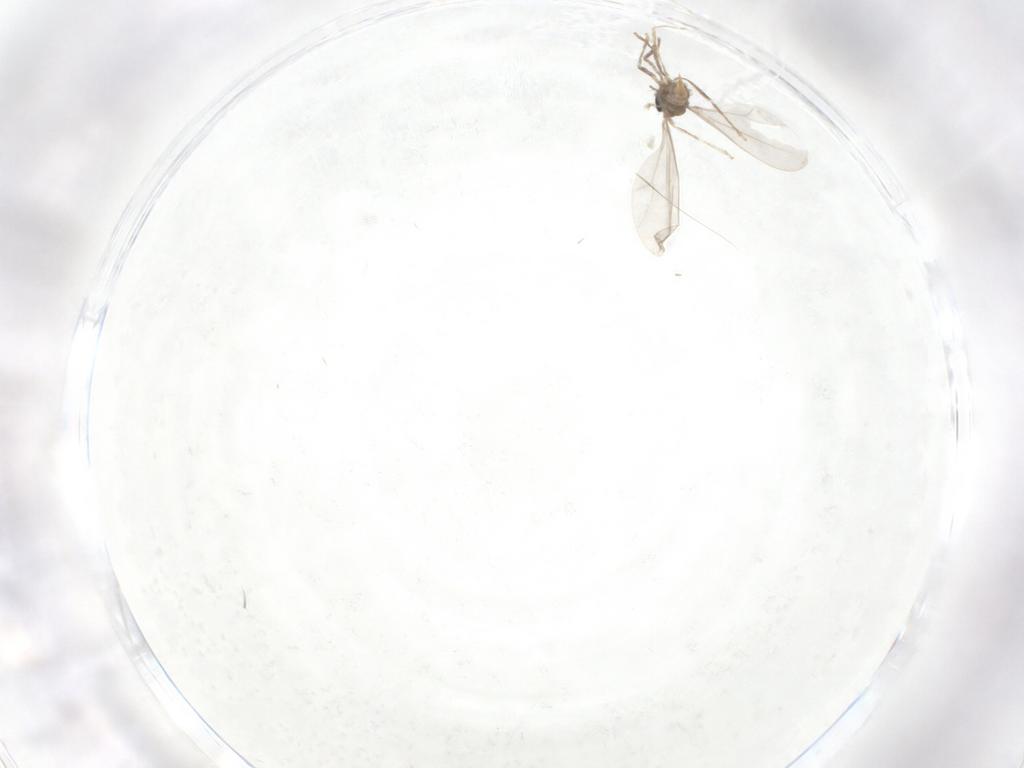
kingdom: Animalia
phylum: Arthropoda
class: Insecta
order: Diptera
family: Cecidomyiidae
